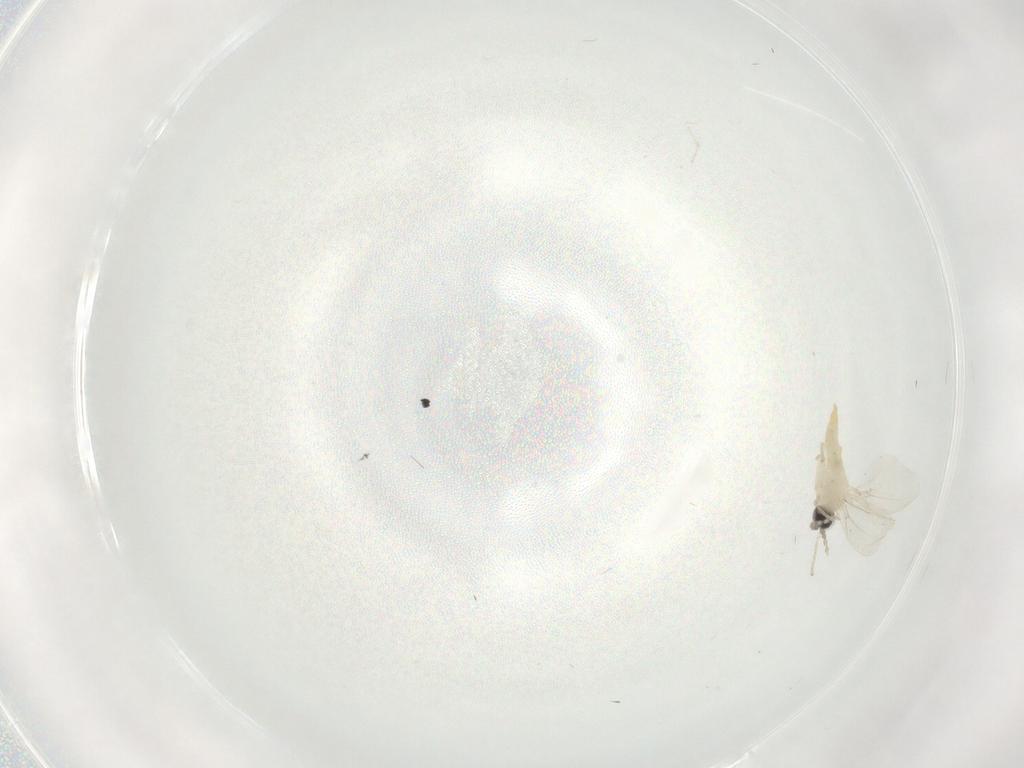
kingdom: Animalia
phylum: Arthropoda
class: Insecta
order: Diptera
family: Cecidomyiidae
